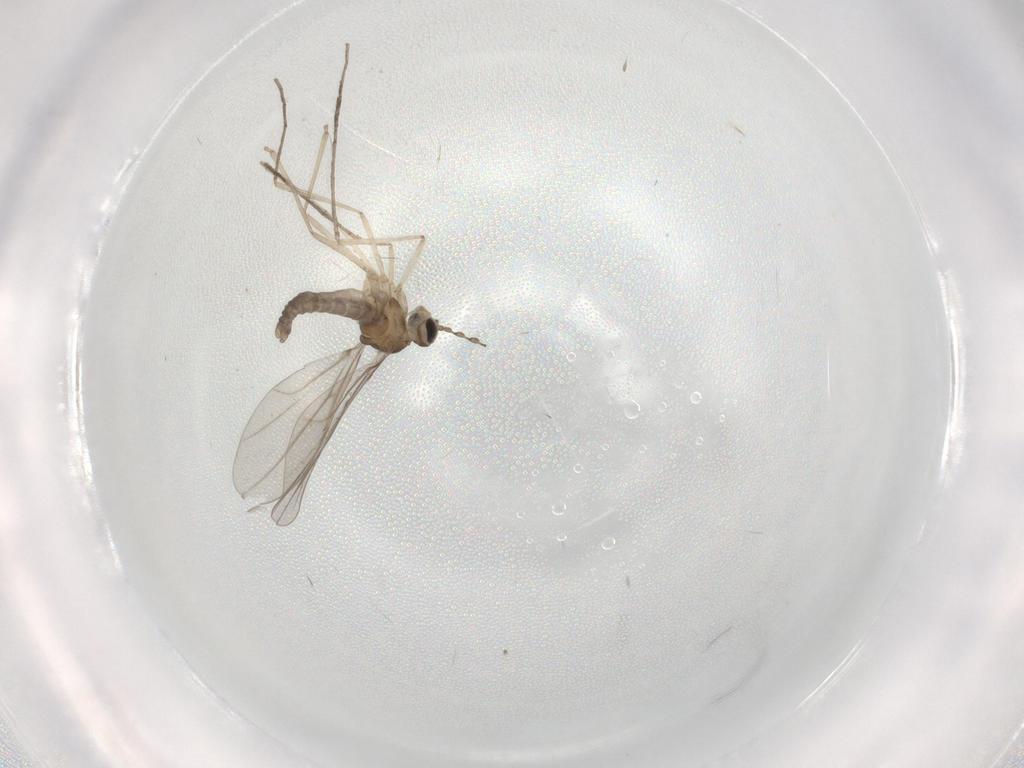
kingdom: Animalia
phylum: Arthropoda
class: Insecta
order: Diptera
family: Cecidomyiidae
